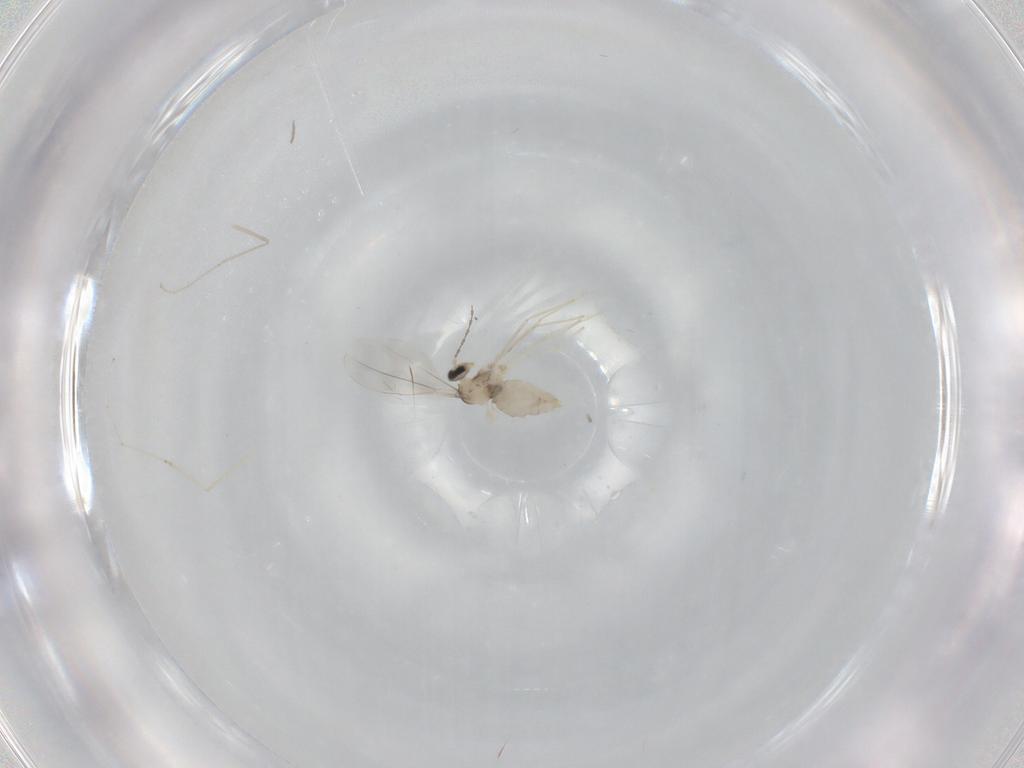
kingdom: Animalia
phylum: Arthropoda
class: Insecta
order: Diptera
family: Cecidomyiidae
